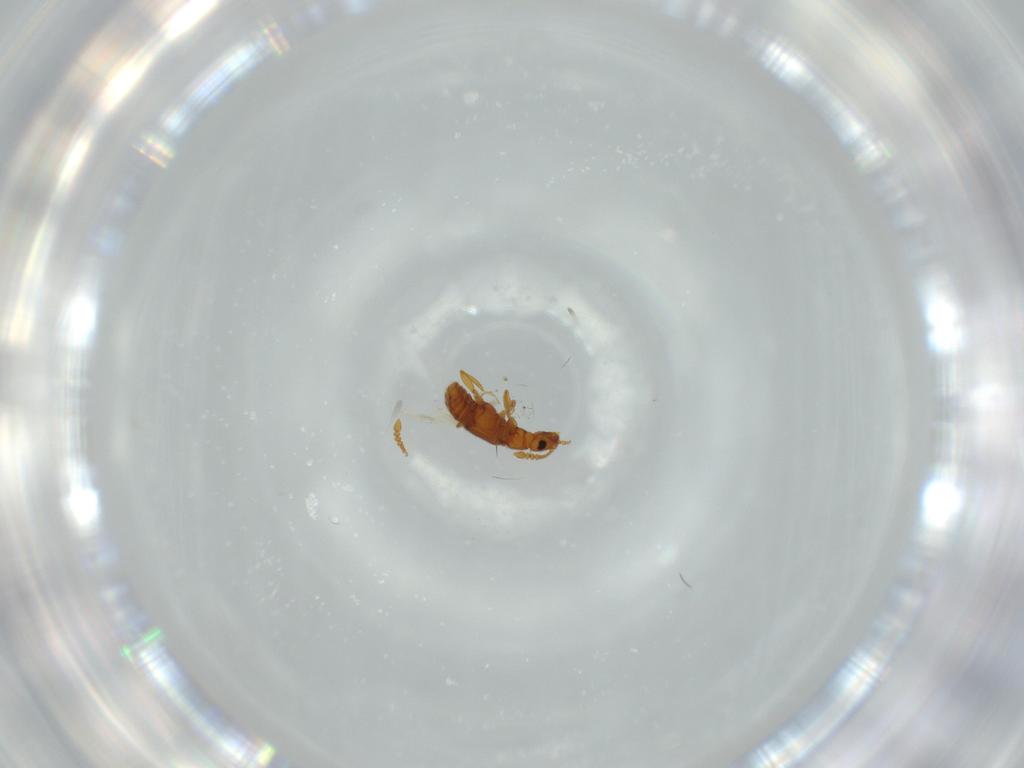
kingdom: Animalia
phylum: Arthropoda
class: Insecta
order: Coleoptera
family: Staphylinidae
